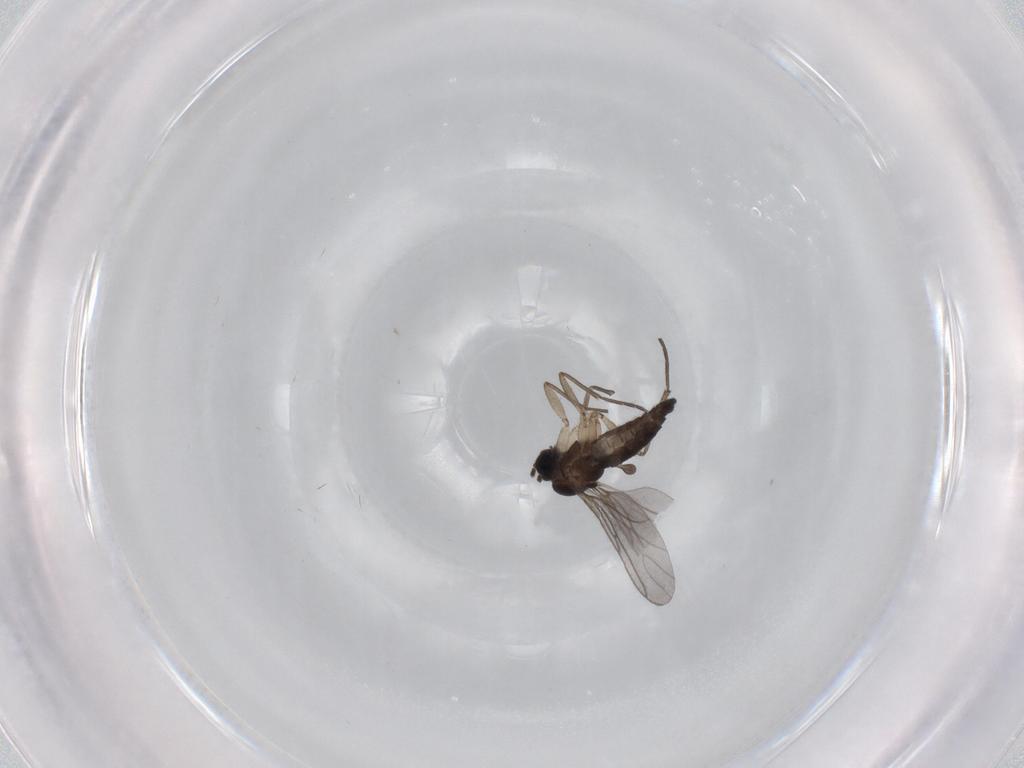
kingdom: Animalia
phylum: Arthropoda
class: Insecta
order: Diptera
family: Sciaridae
